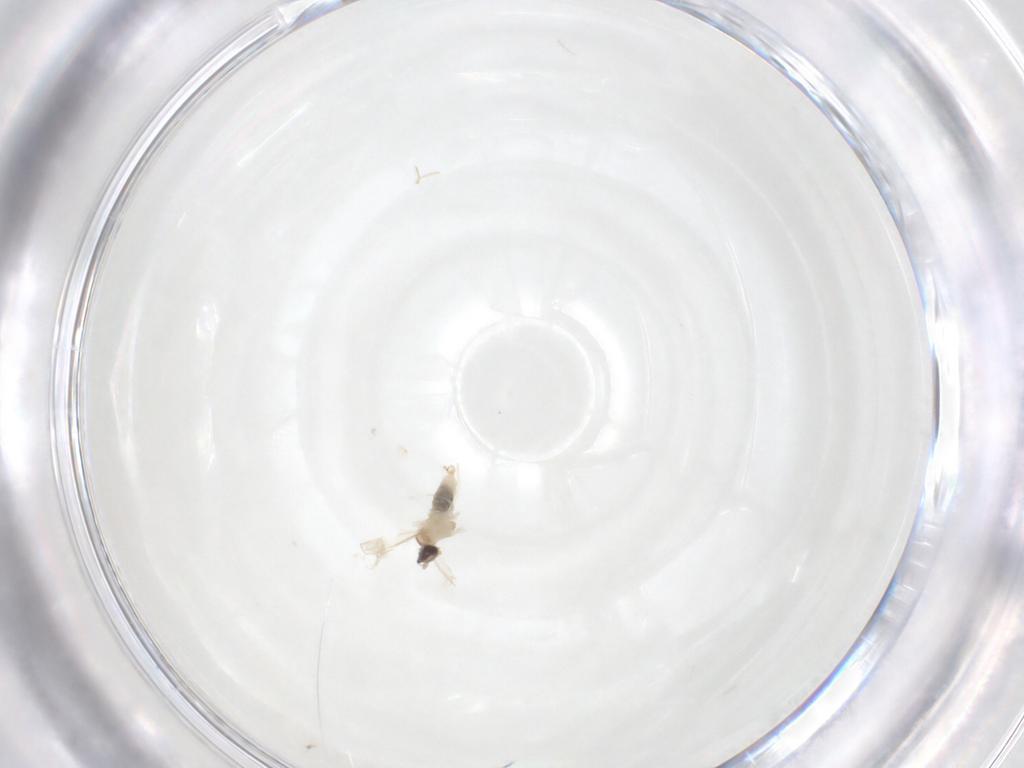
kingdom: Animalia
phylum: Arthropoda
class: Insecta
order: Diptera
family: Cecidomyiidae
